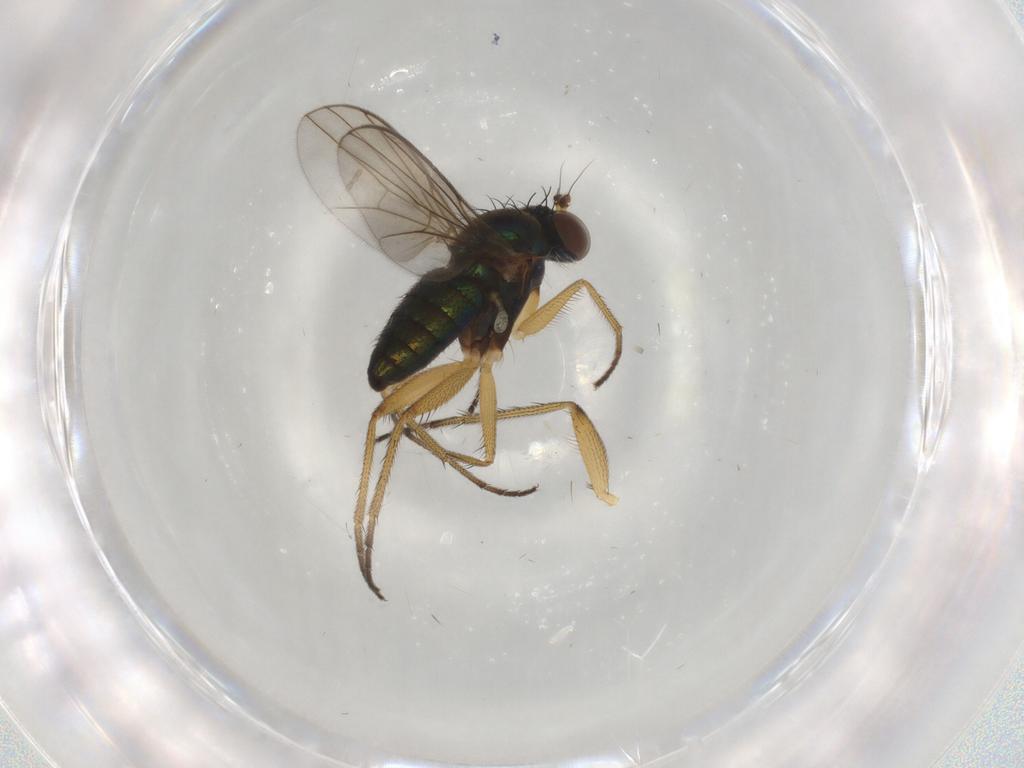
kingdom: Animalia
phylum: Arthropoda
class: Insecta
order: Diptera
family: Dolichopodidae
